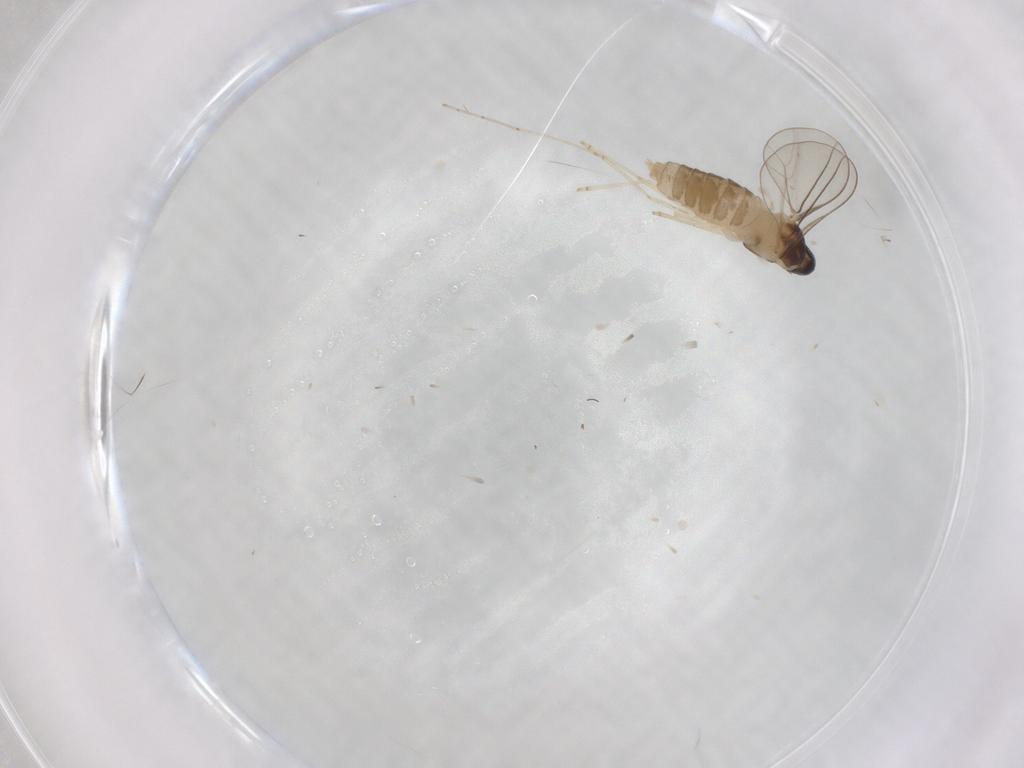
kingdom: Animalia
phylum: Arthropoda
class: Insecta
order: Diptera
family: Cecidomyiidae
